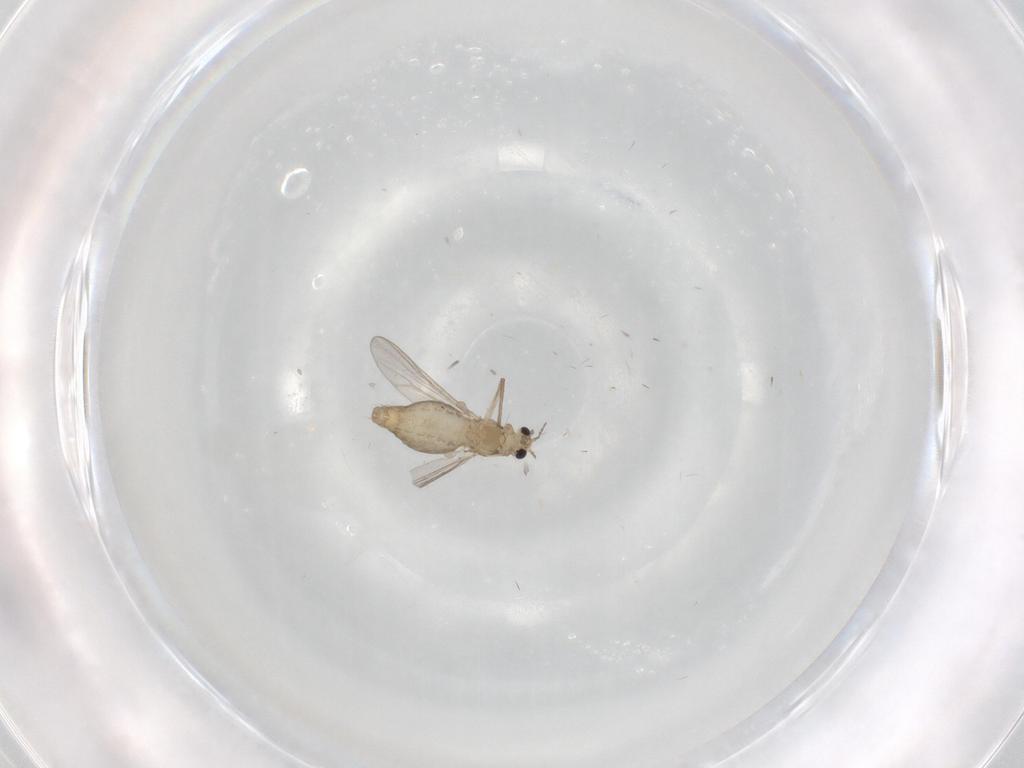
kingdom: Animalia
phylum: Arthropoda
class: Insecta
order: Diptera
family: Chironomidae
